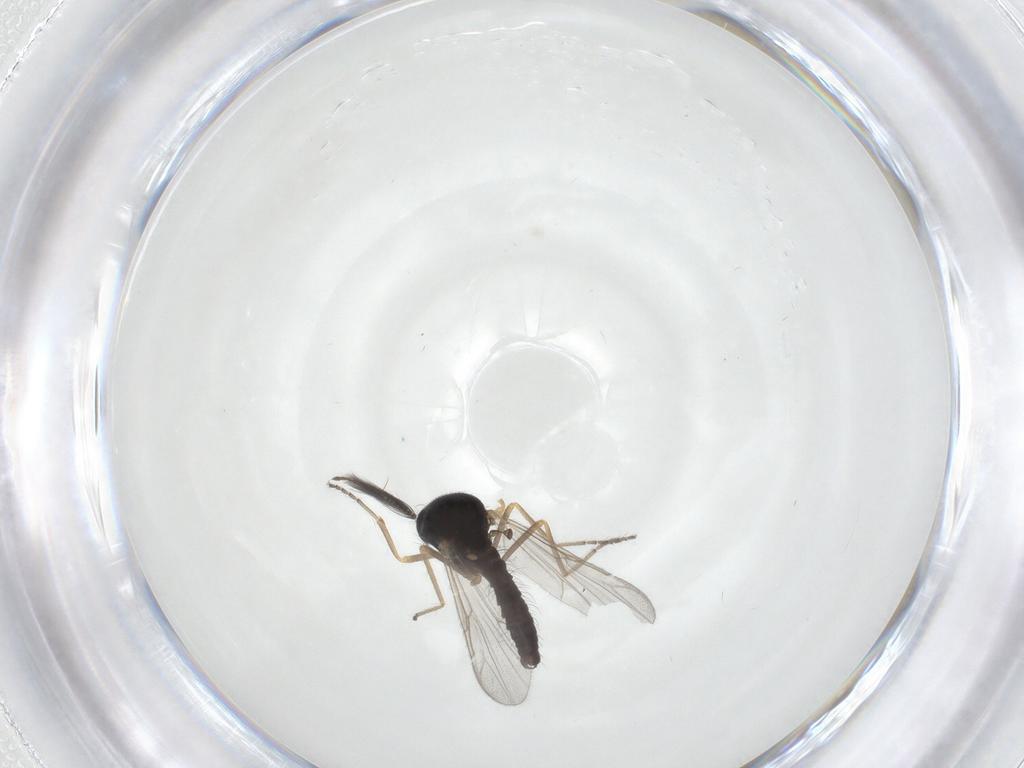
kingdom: Animalia
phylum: Arthropoda
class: Insecta
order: Diptera
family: Ceratopogonidae
